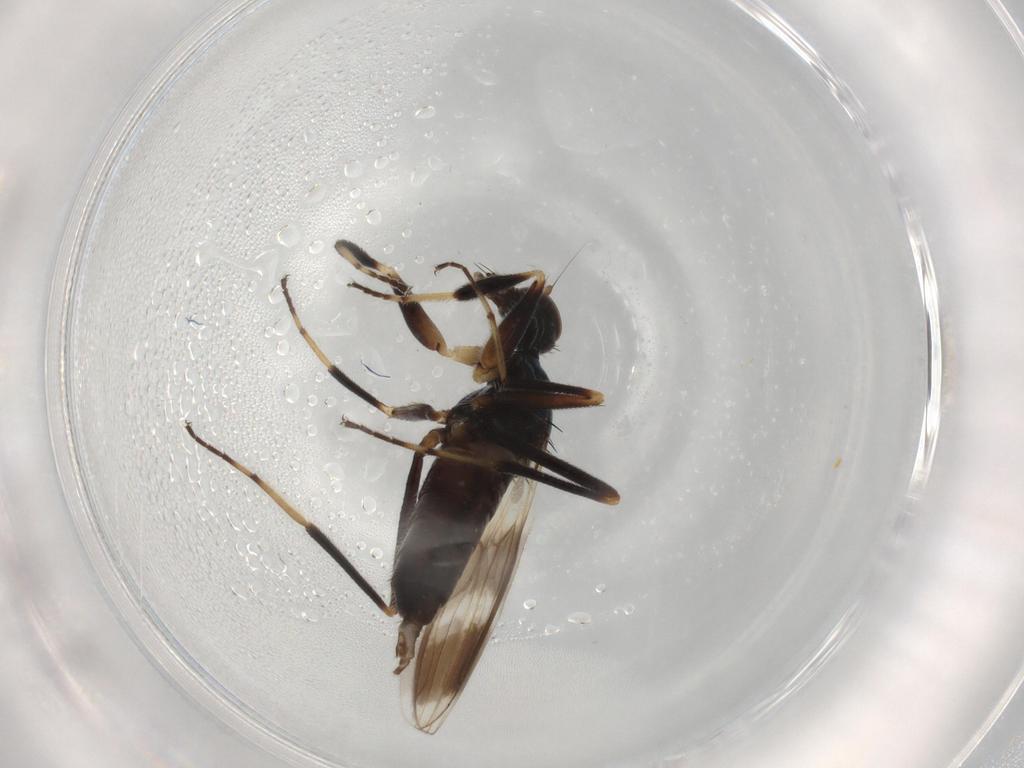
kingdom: Animalia
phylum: Arthropoda
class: Insecta
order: Diptera
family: Hybotidae
